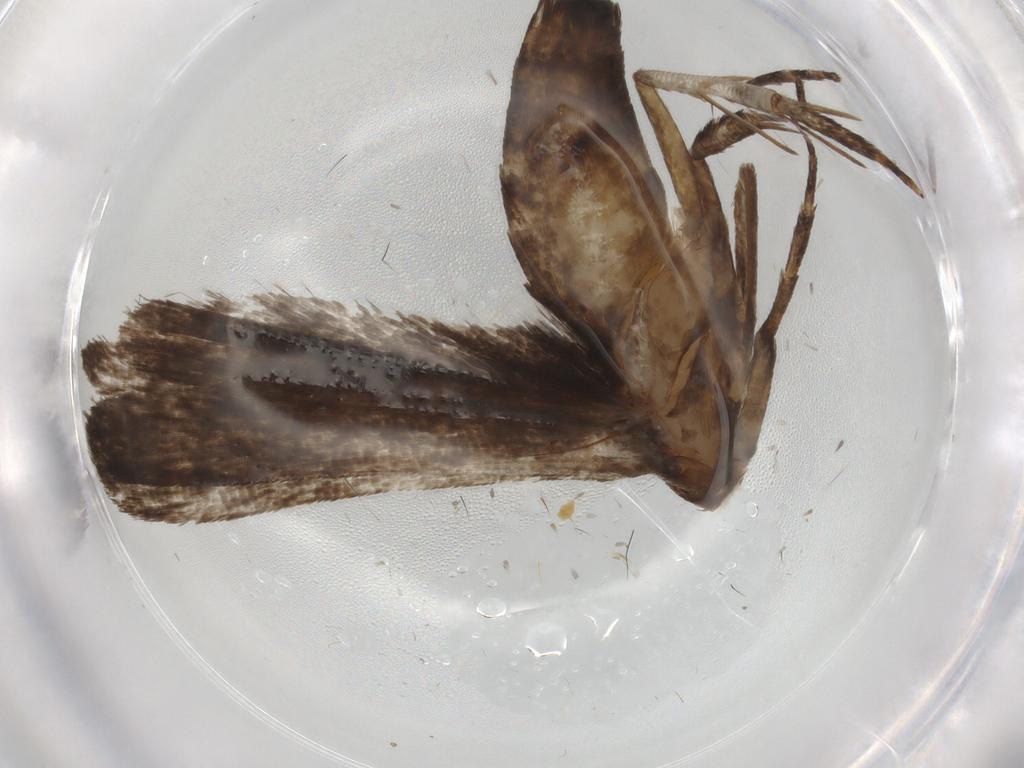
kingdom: Animalia
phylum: Arthropoda
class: Insecta
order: Lepidoptera
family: Gelechiidae
